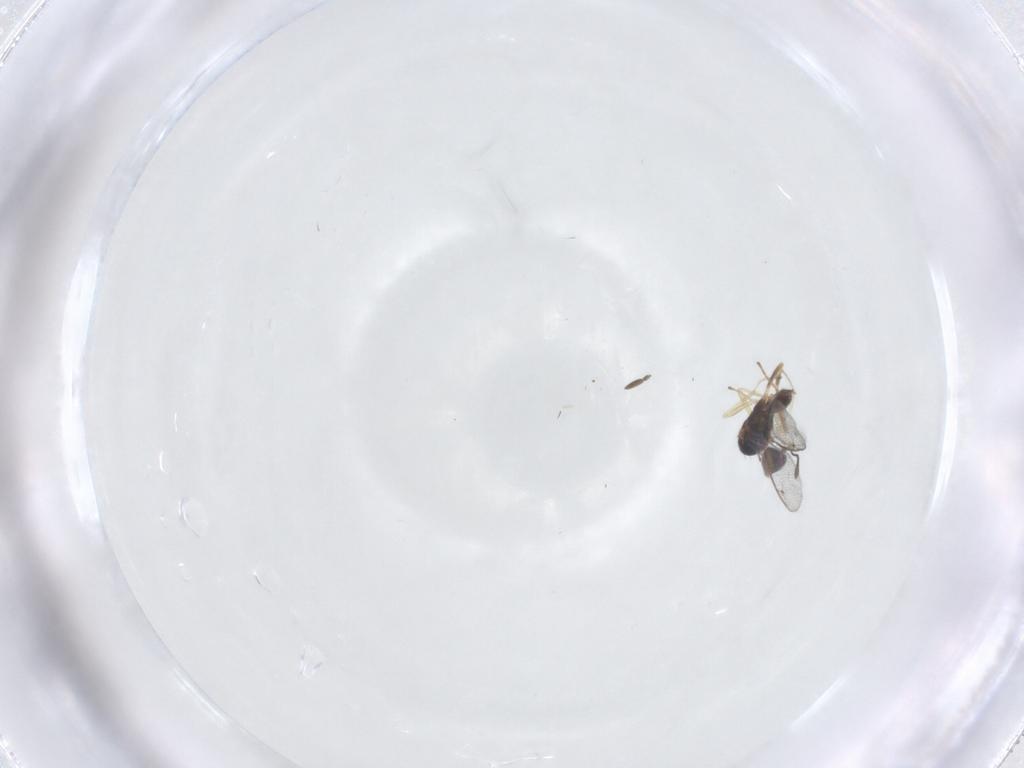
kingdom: Animalia
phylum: Arthropoda
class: Insecta
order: Hymenoptera
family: Eulophidae
